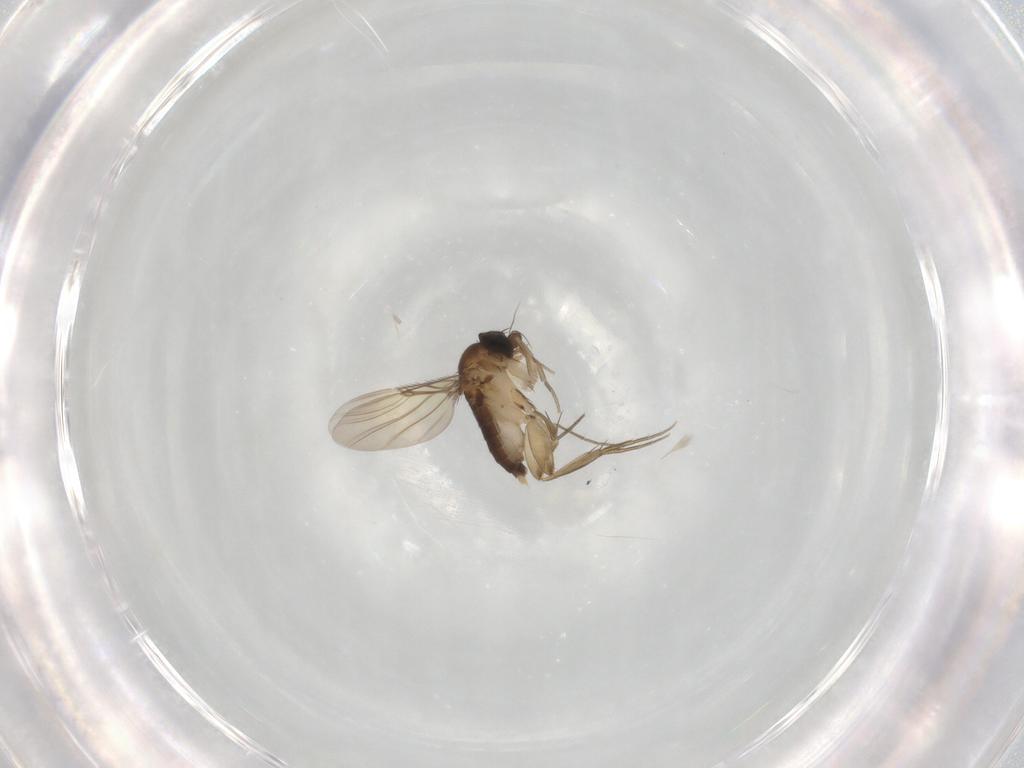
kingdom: Animalia
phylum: Arthropoda
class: Insecta
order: Diptera
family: Phoridae
